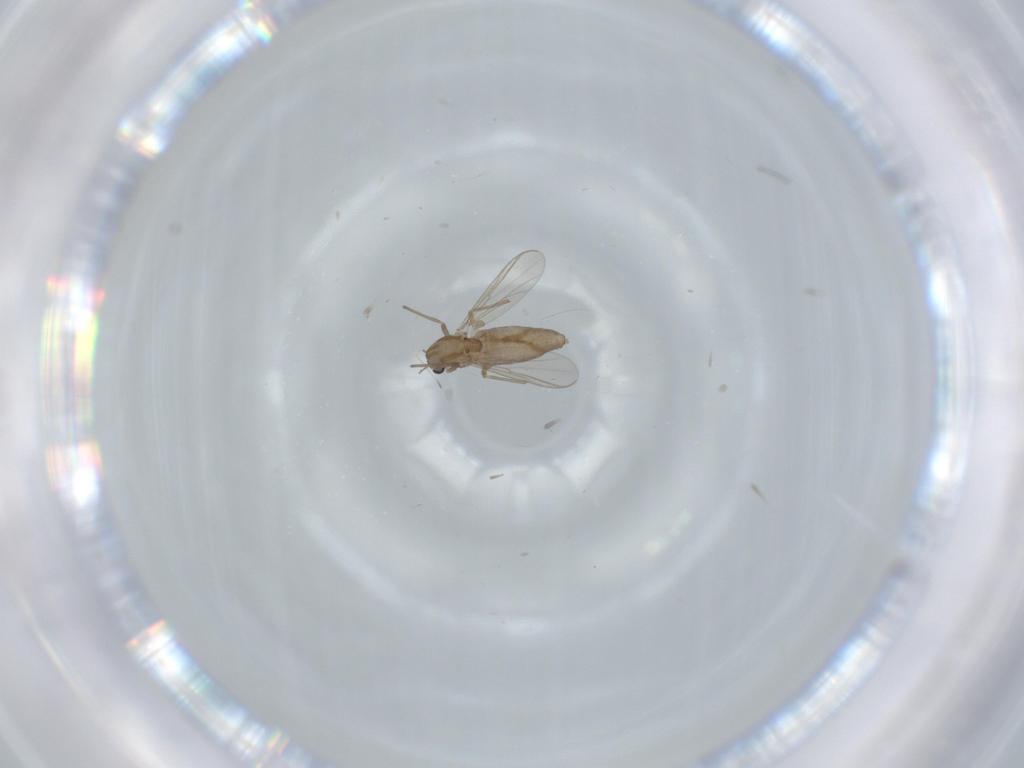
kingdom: Animalia
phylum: Arthropoda
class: Insecta
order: Diptera
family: Chironomidae
